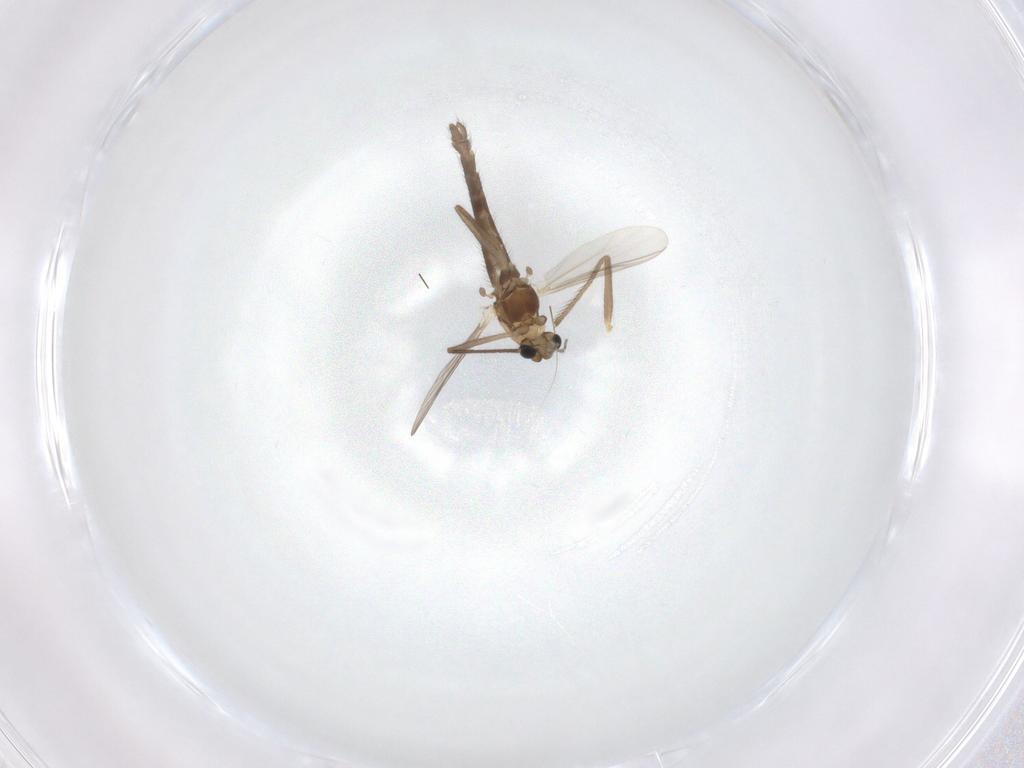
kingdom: Animalia
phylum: Arthropoda
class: Insecta
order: Diptera
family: Chironomidae
